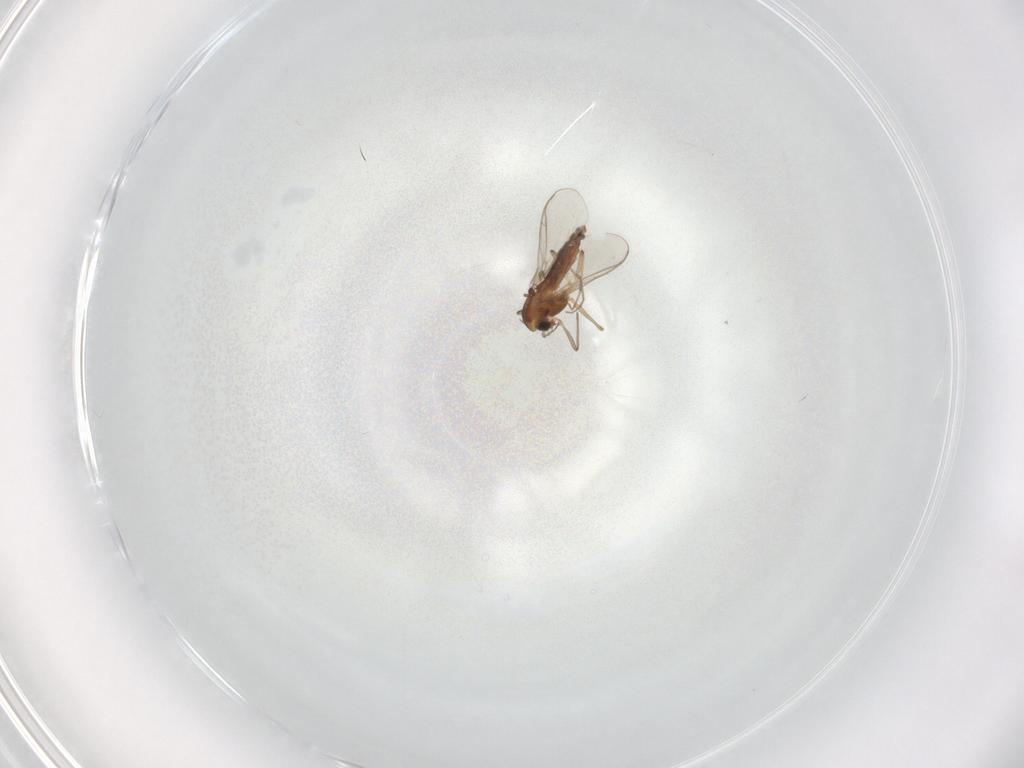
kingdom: Animalia
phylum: Arthropoda
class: Insecta
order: Diptera
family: Chironomidae
